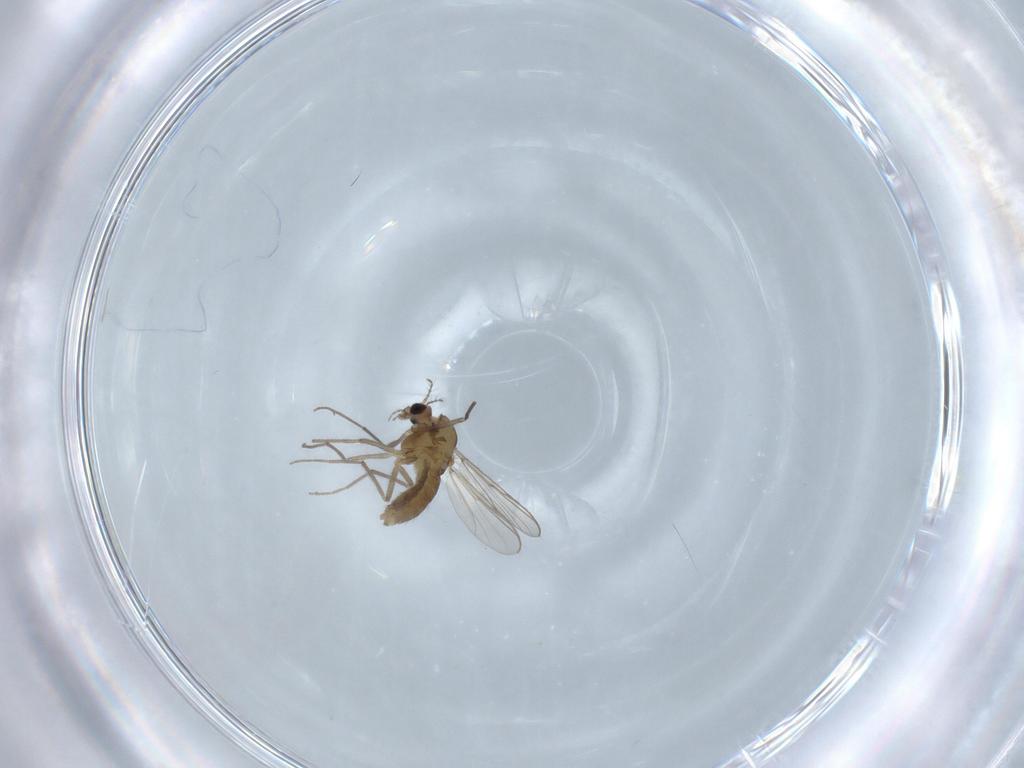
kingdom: Animalia
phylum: Arthropoda
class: Insecta
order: Diptera
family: Chironomidae
